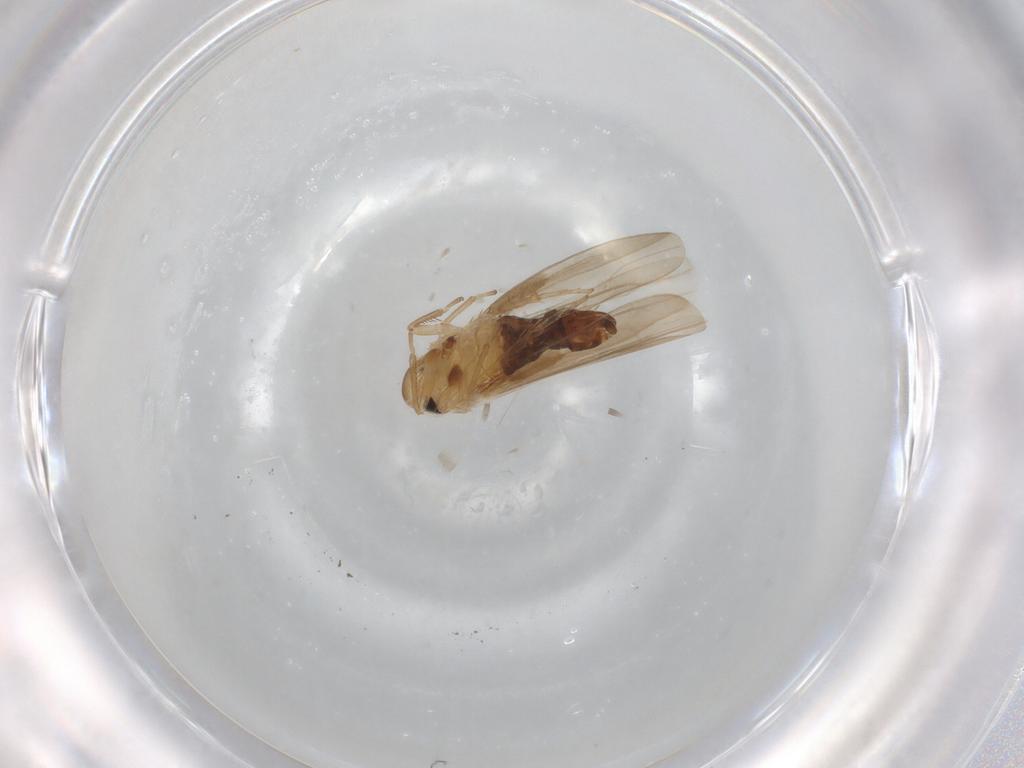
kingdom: Animalia
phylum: Arthropoda
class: Insecta
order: Hemiptera
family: Cicadellidae
